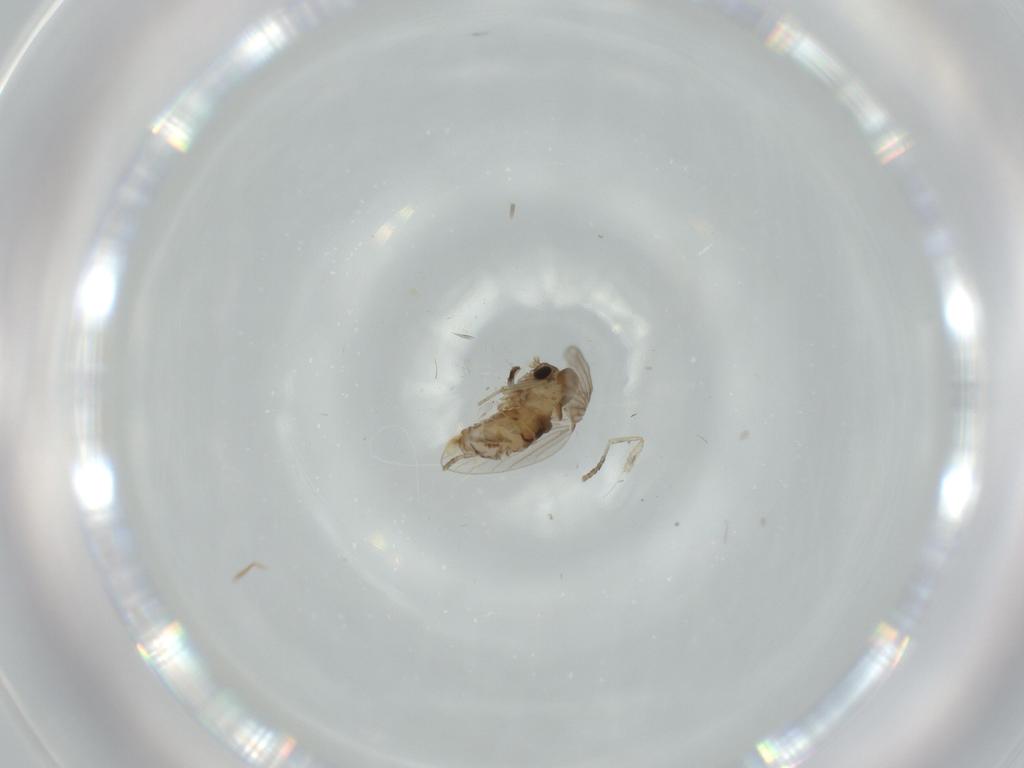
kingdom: Animalia
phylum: Arthropoda
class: Insecta
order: Diptera
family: Sciaridae
